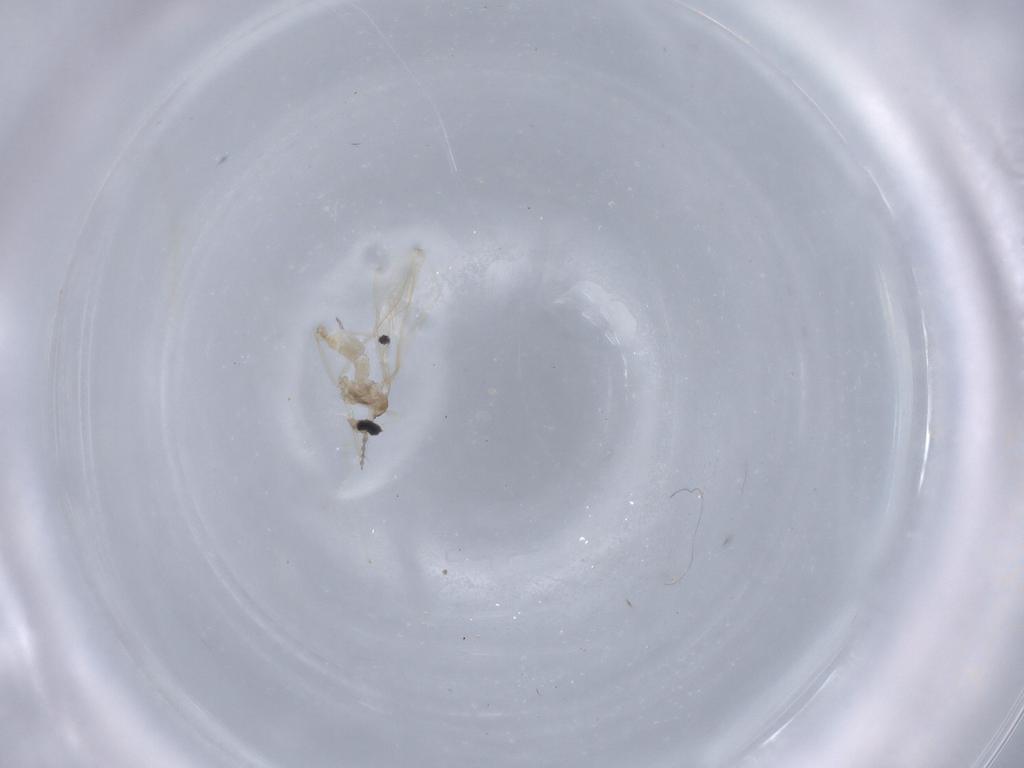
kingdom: Animalia
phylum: Arthropoda
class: Insecta
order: Diptera
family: Cecidomyiidae
